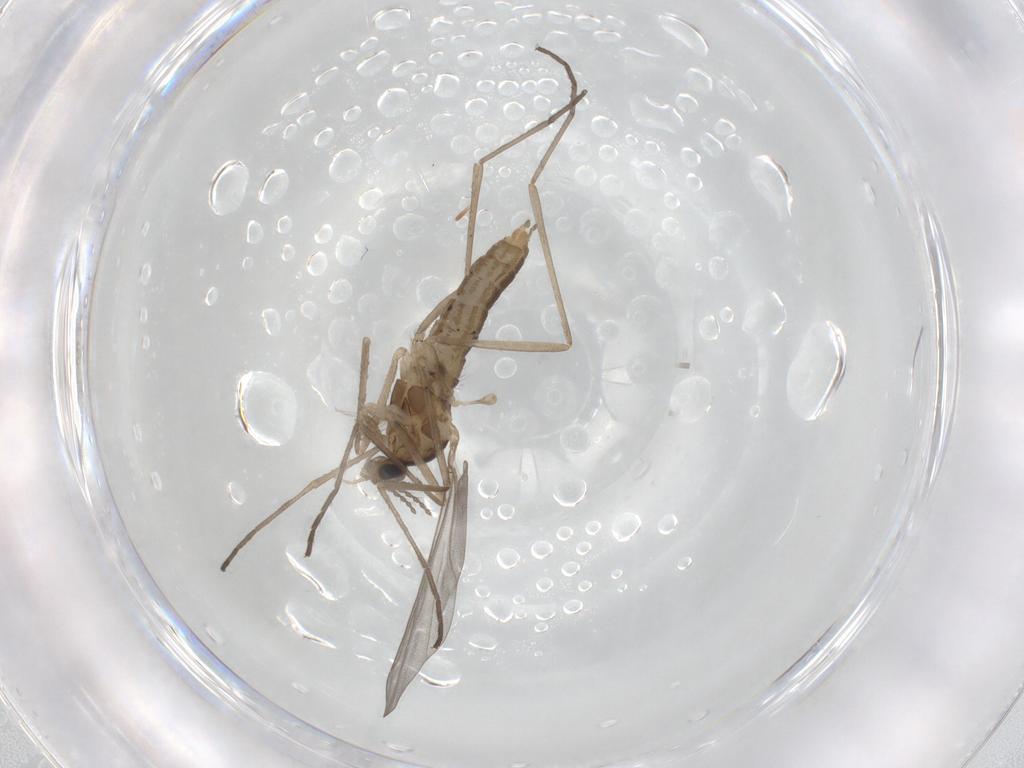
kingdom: Animalia
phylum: Arthropoda
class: Insecta
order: Diptera
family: Cecidomyiidae
